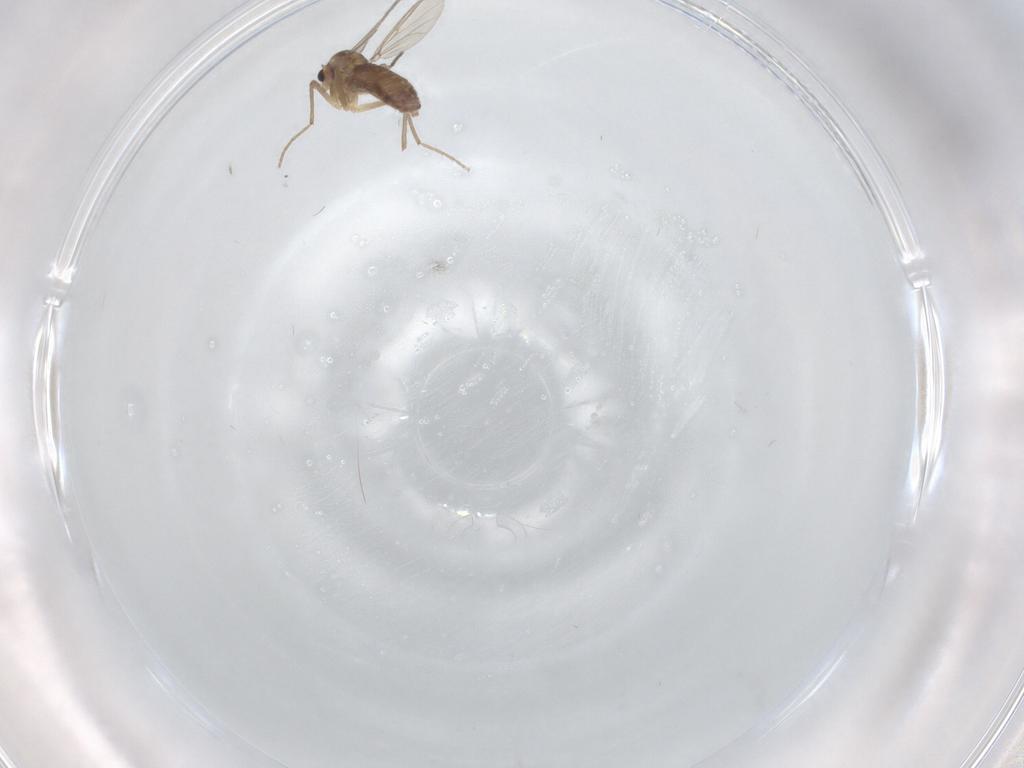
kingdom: Animalia
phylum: Arthropoda
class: Insecta
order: Diptera
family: Chironomidae
